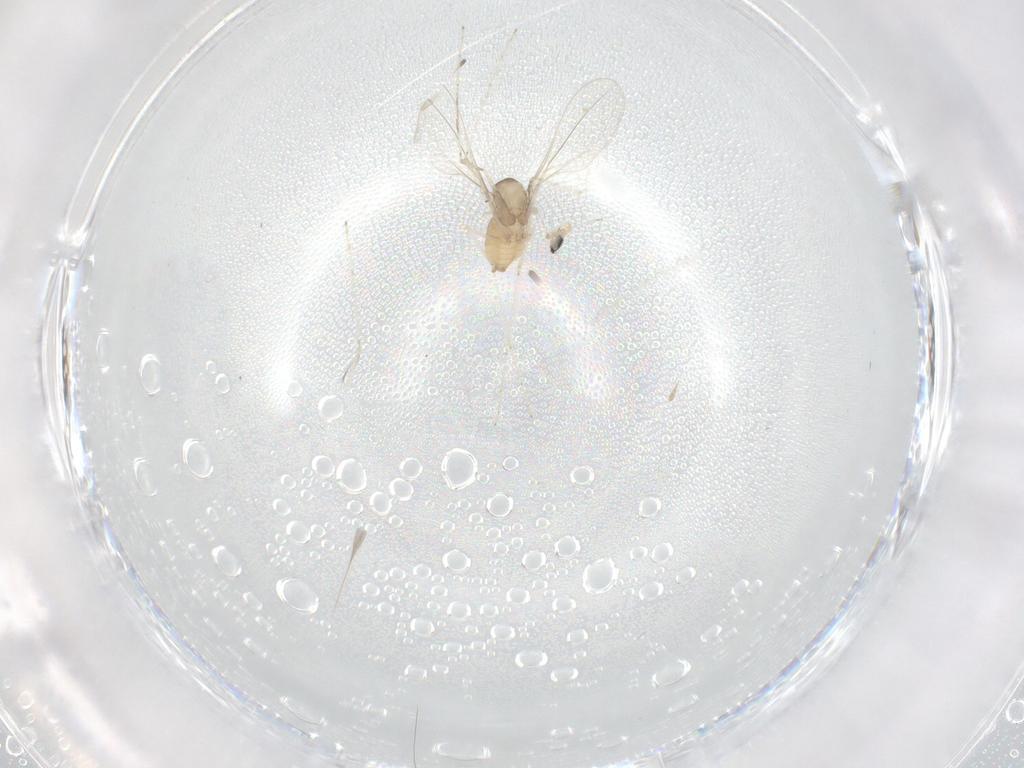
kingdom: Animalia
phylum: Arthropoda
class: Insecta
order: Diptera
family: Cecidomyiidae
